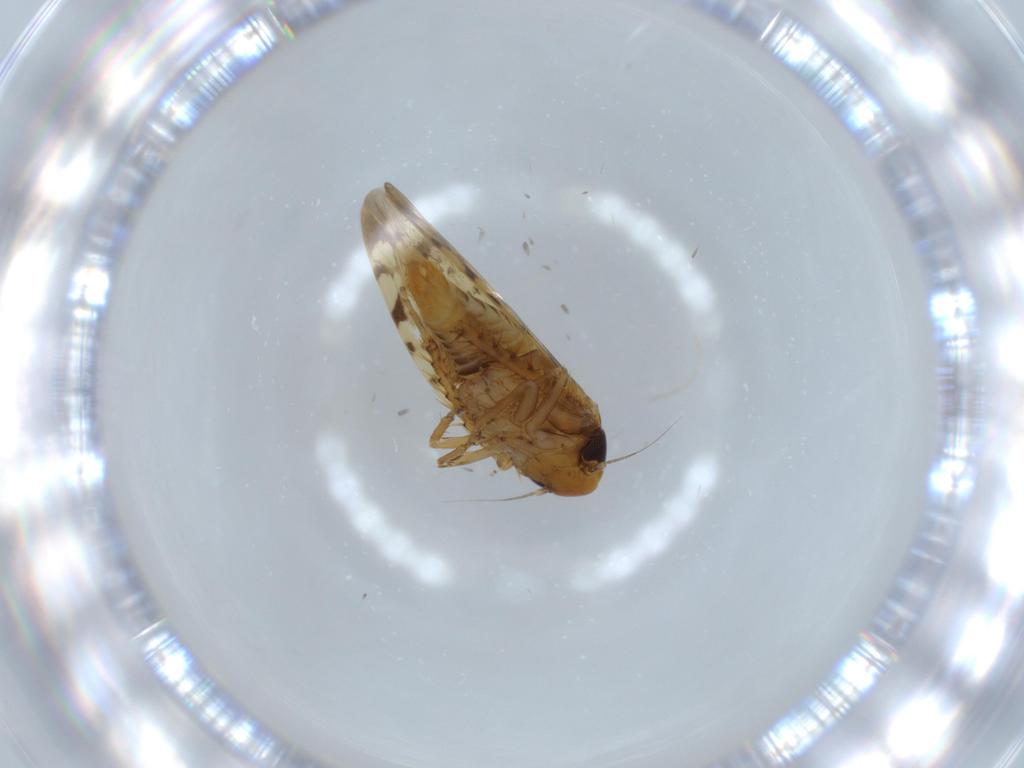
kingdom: Animalia
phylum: Arthropoda
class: Insecta
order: Hemiptera
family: Cicadellidae
